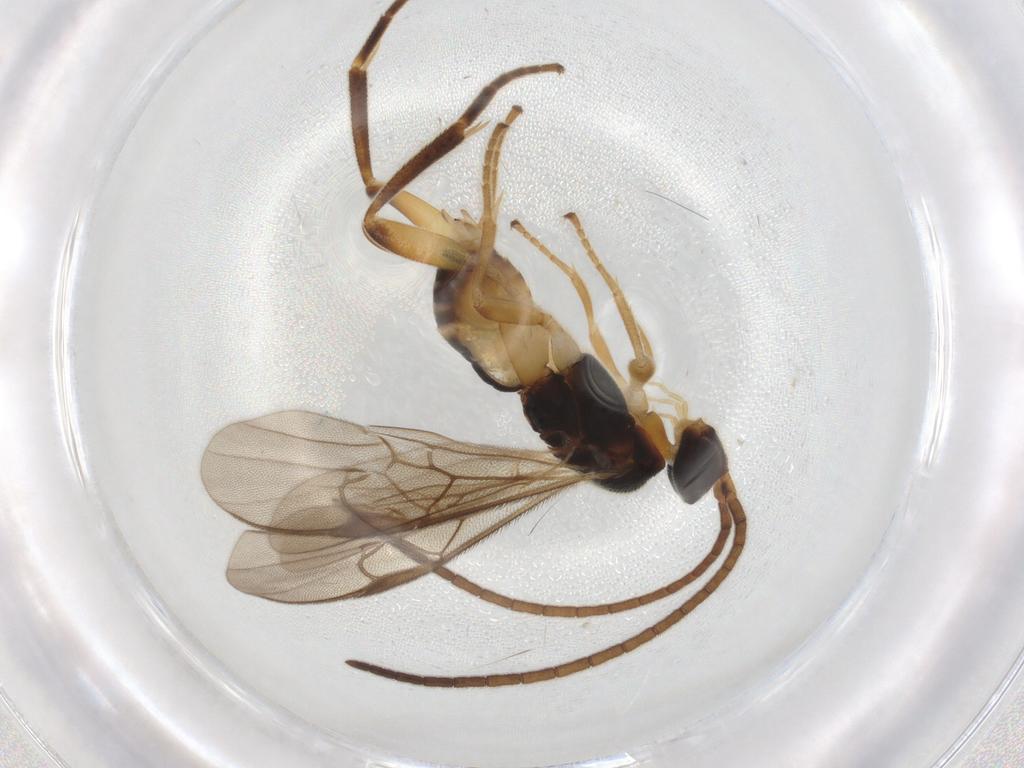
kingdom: Animalia
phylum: Arthropoda
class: Insecta
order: Hymenoptera
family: Braconidae
